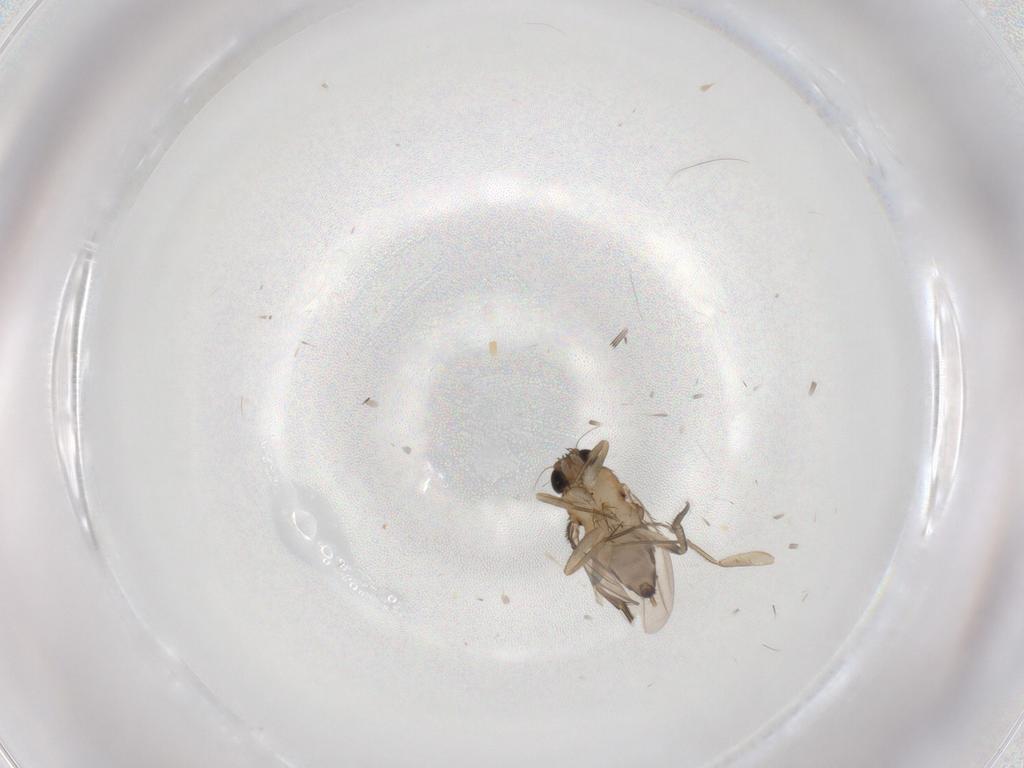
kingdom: Animalia
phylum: Arthropoda
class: Insecta
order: Diptera
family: Phoridae
